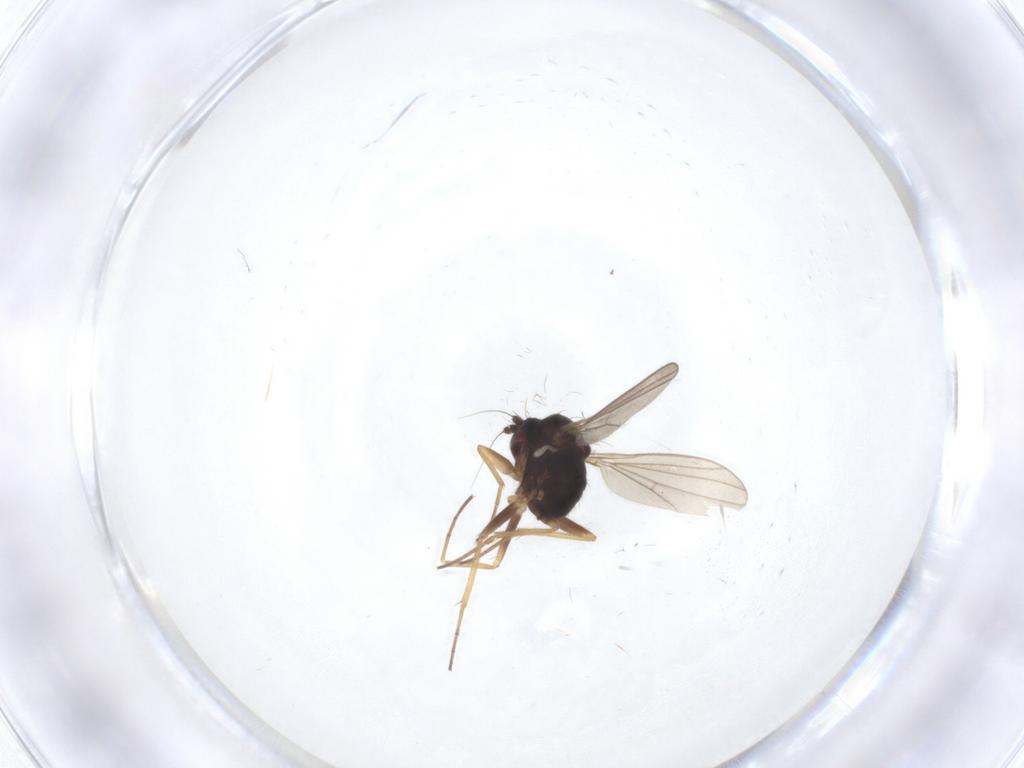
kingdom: Animalia
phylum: Arthropoda
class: Insecta
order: Diptera
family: Dolichopodidae
